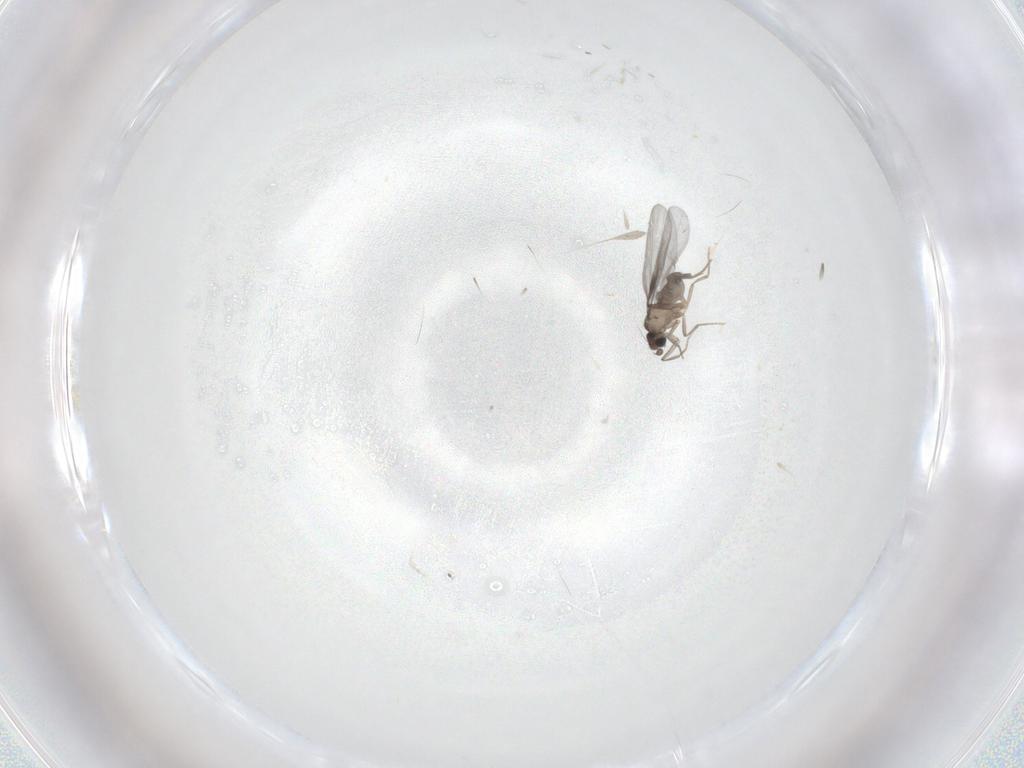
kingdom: Animalia
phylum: Arthropoda
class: Insecta
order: Diptera
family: Phoridae
